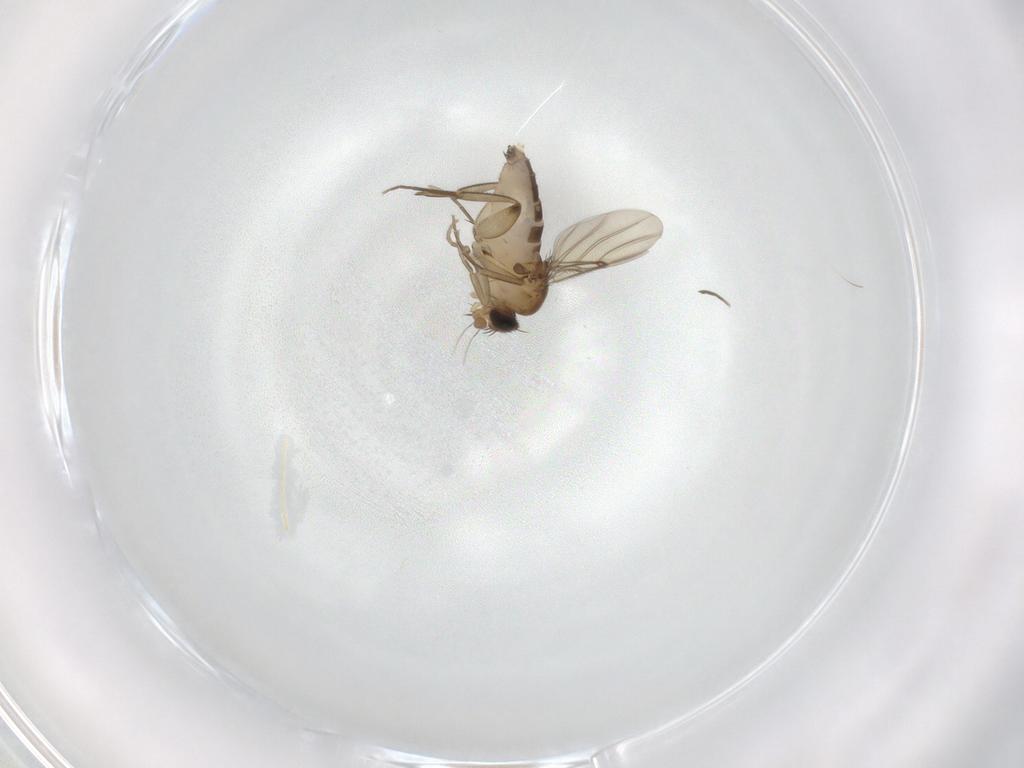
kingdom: Animalia
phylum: Arthropoda
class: Insecta
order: Diptera
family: Phoridae
